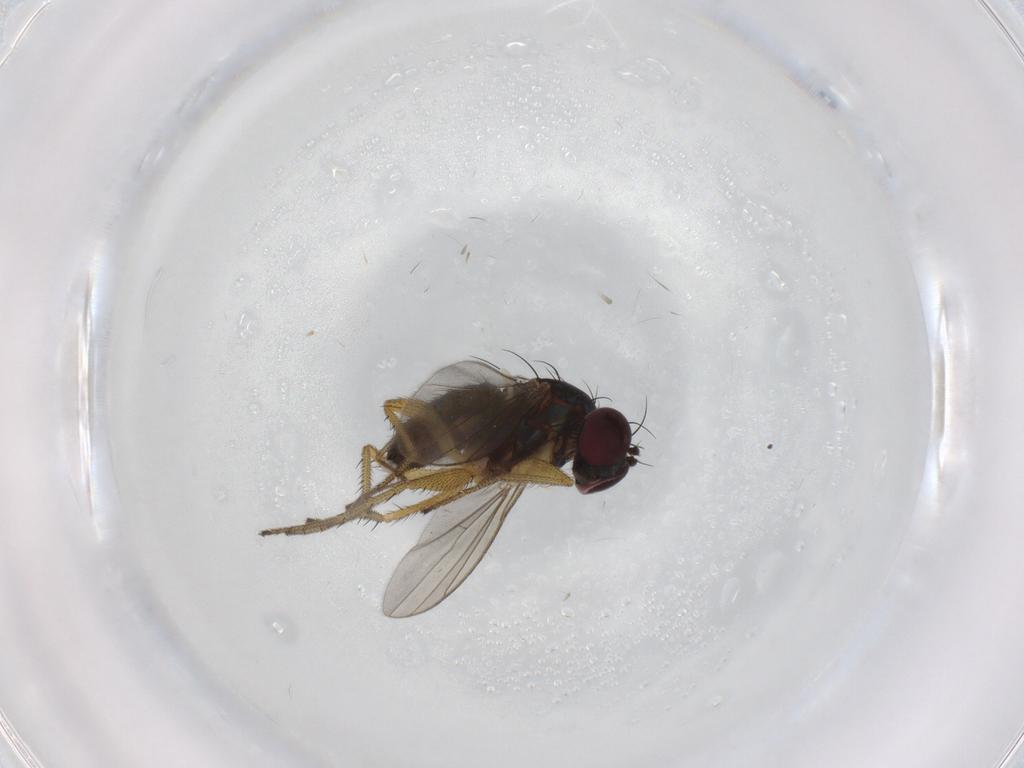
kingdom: Animalia
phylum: Arthropoda
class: Insecta
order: Diptera
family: Dolichopodidae
